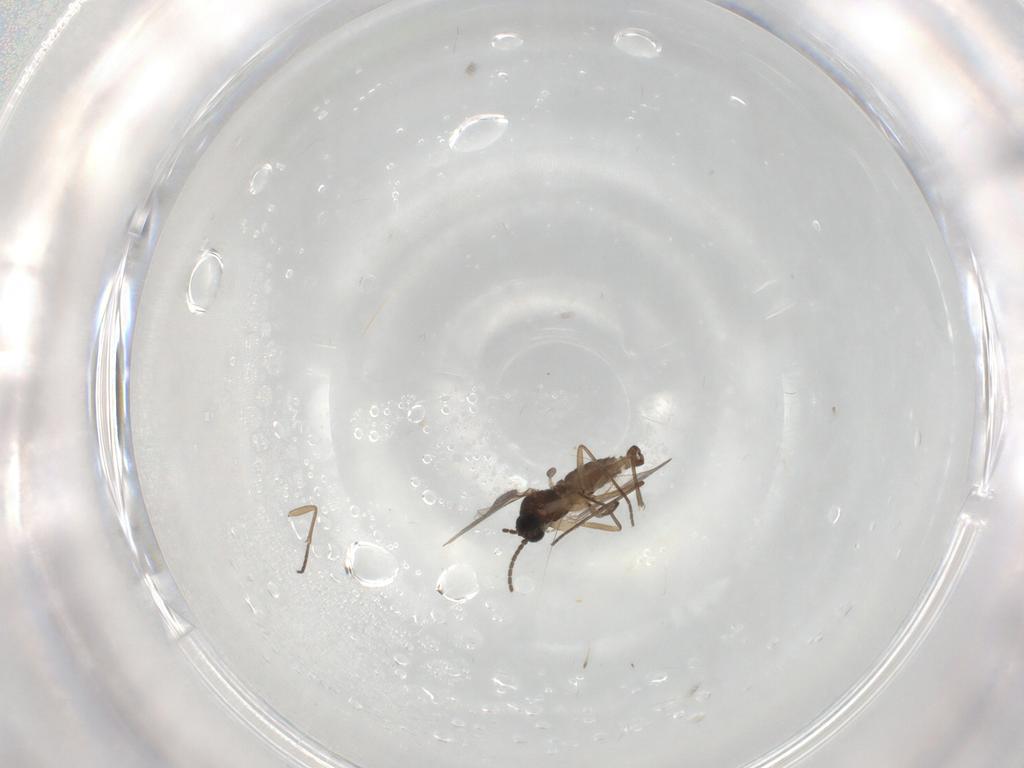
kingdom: Animalia
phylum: Arthropoda
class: Insecta
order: Diptera
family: Sciaridae
